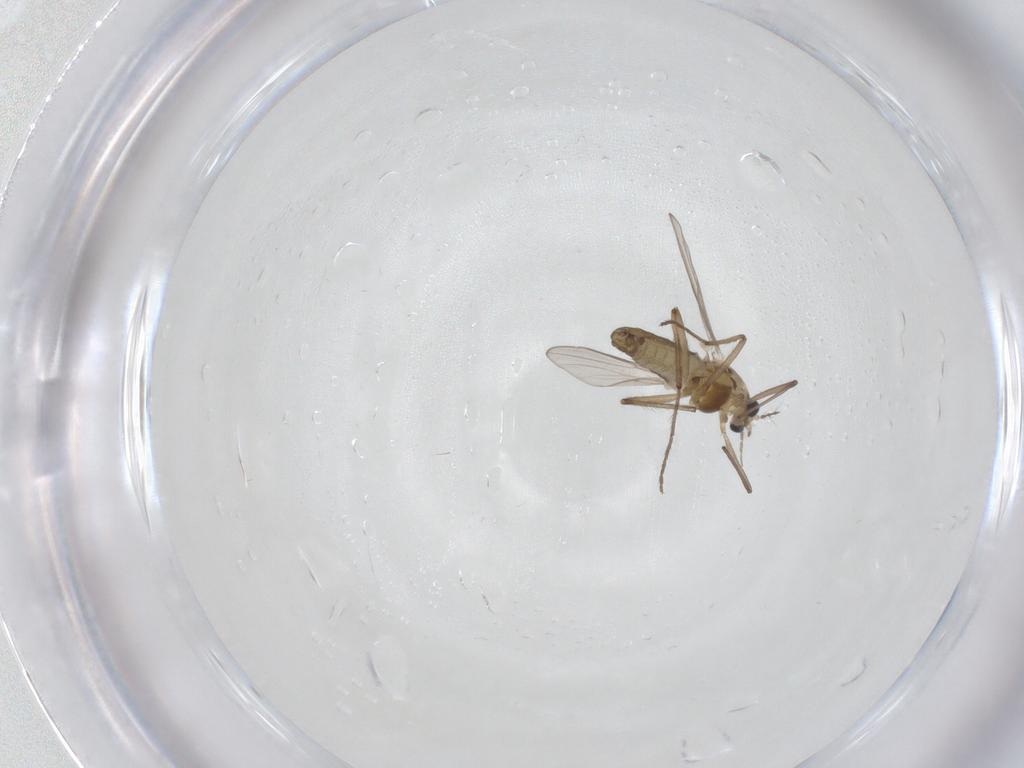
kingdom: Animalia
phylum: Arthropoda
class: Insecta
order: Diptera
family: Chironomidae
